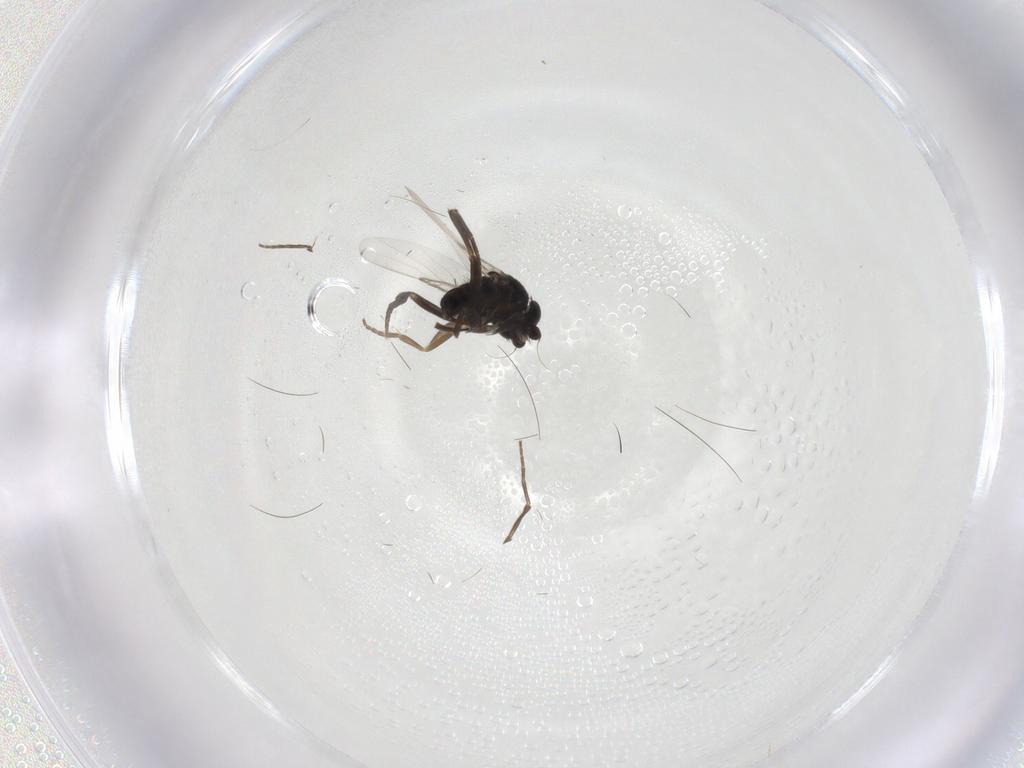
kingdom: Animalia
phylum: Arthropoda
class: Insecta
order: Diptera
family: Phoridae
